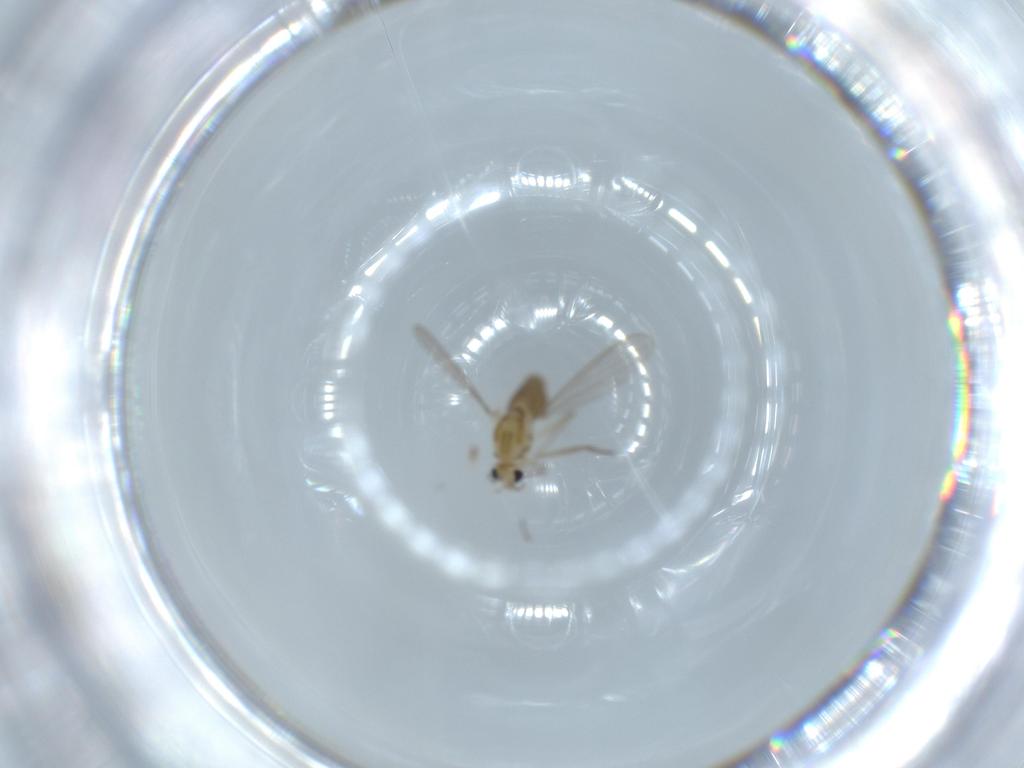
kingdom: Animalia
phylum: Arthropoda
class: Insecta
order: Diptera
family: Chironomidae
